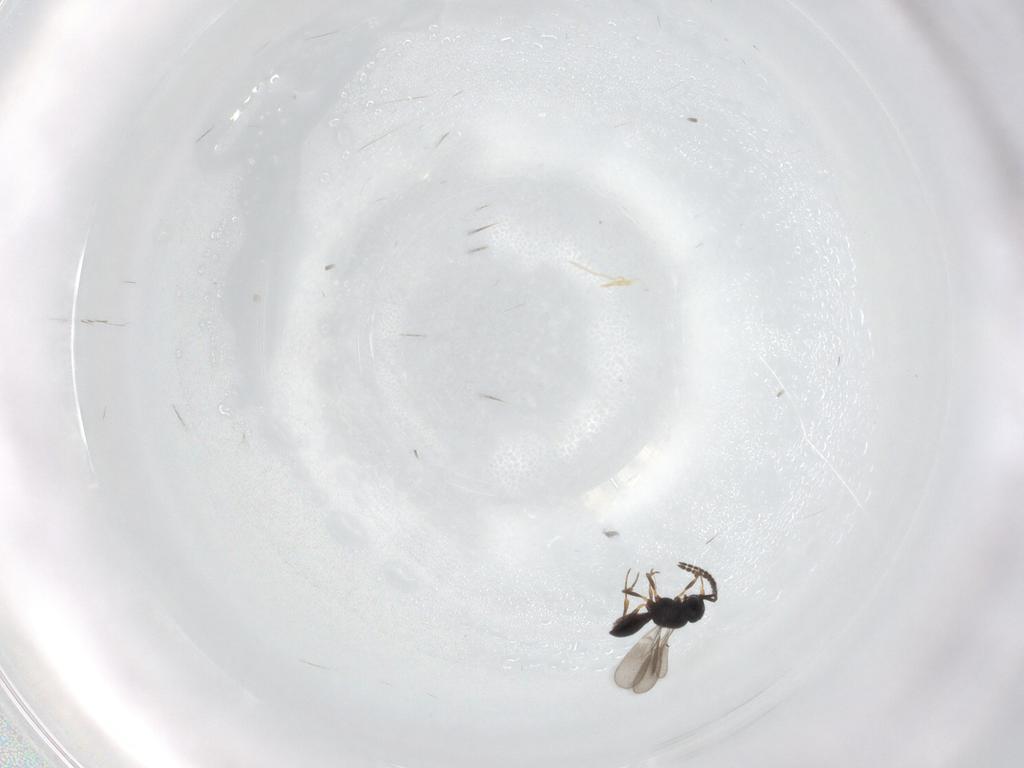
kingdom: Animalia
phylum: Arthropoda
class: Insecta
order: Hymenoptera
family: Scelionidae
